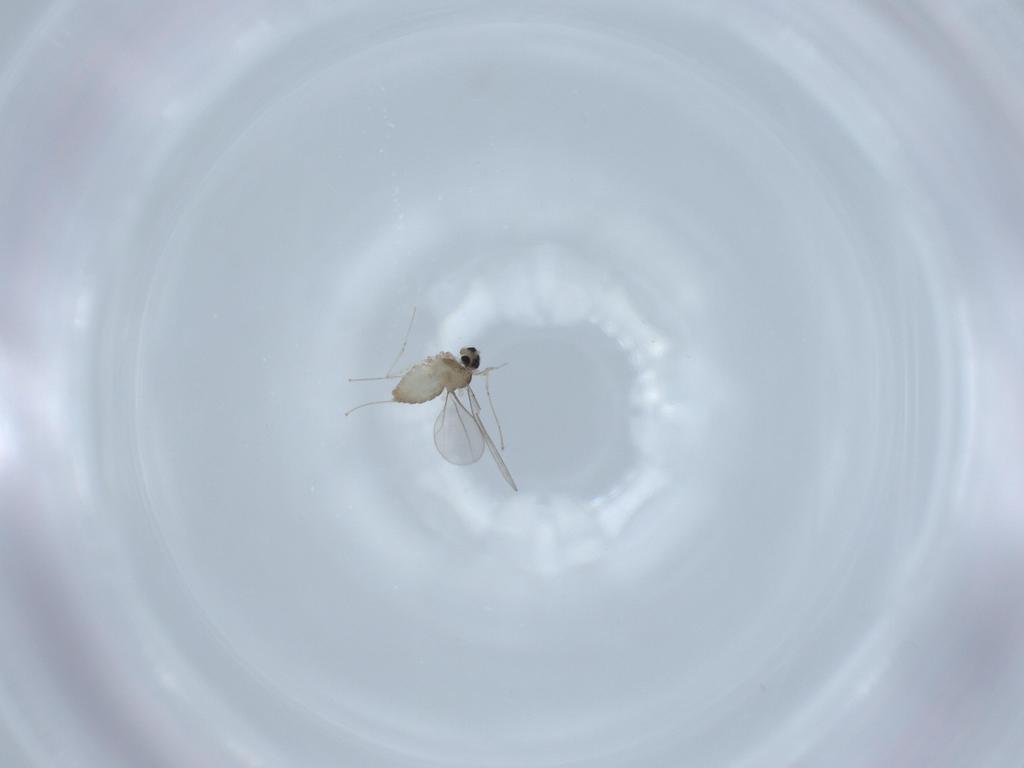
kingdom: Animalia
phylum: Arthropoda
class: Insecta
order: Diptera
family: Cecidomyiidae
